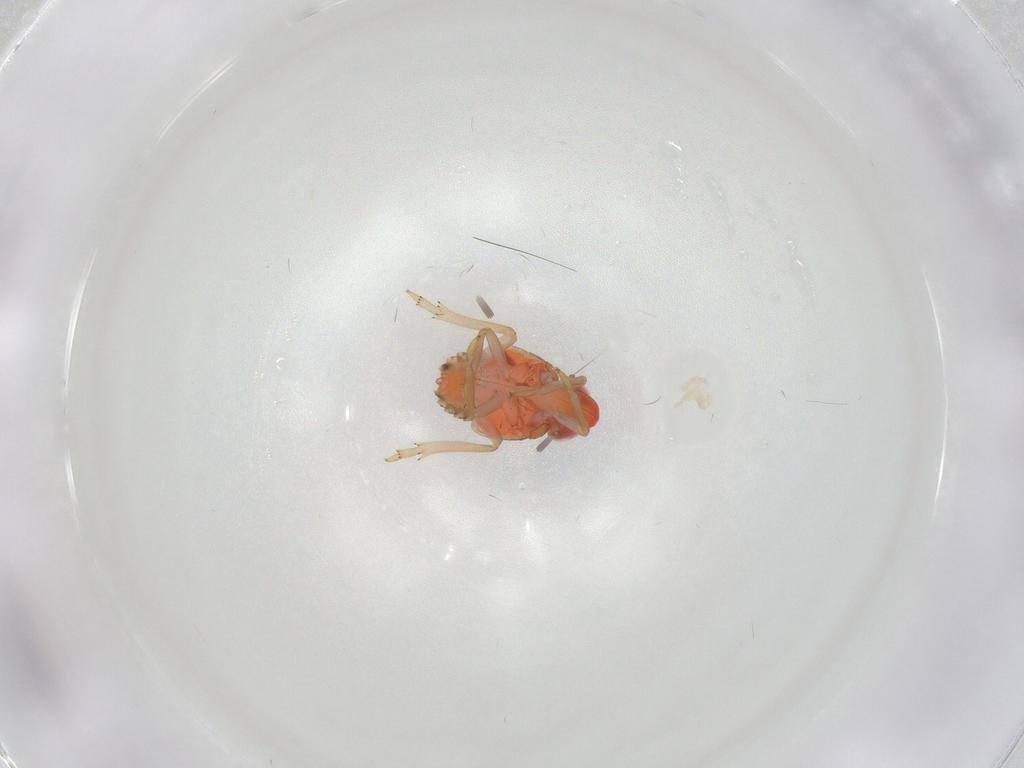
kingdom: Animalia
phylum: Arthropoda
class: Insecta
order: Hemiptera
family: Issidae
